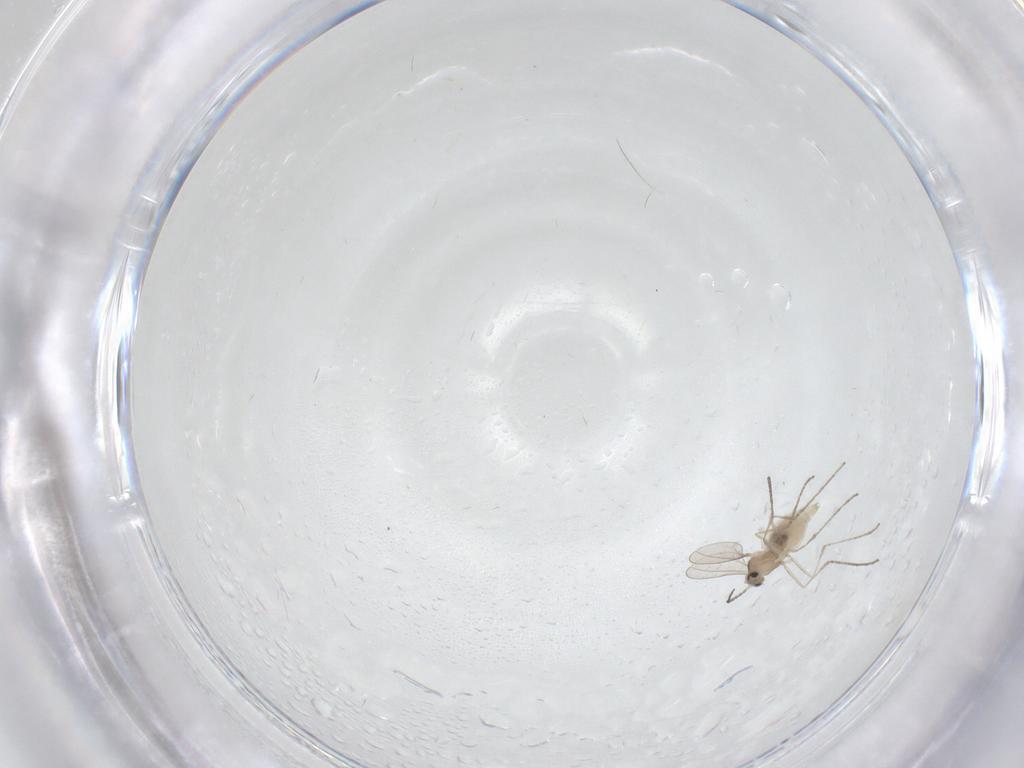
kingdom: Animalia
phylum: Arthropoda
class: Insecta
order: Diptera
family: Cecidomyiidae
